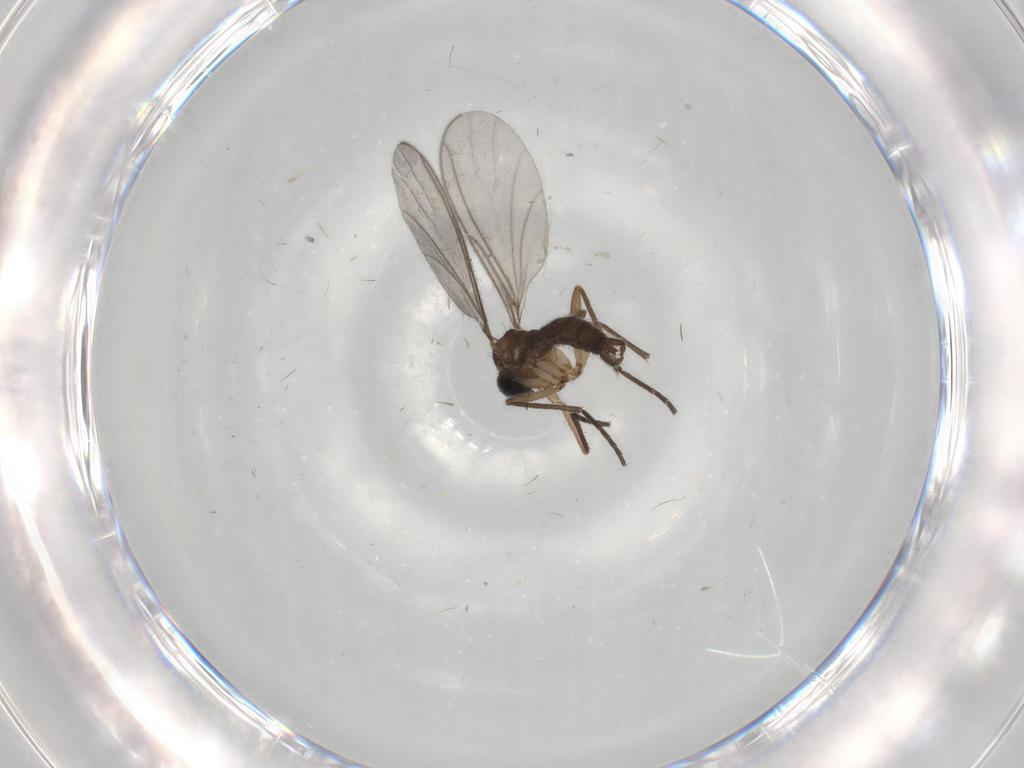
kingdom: Animalia
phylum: Arthropoda
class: Insecta
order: Diptera
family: Sciaridae
